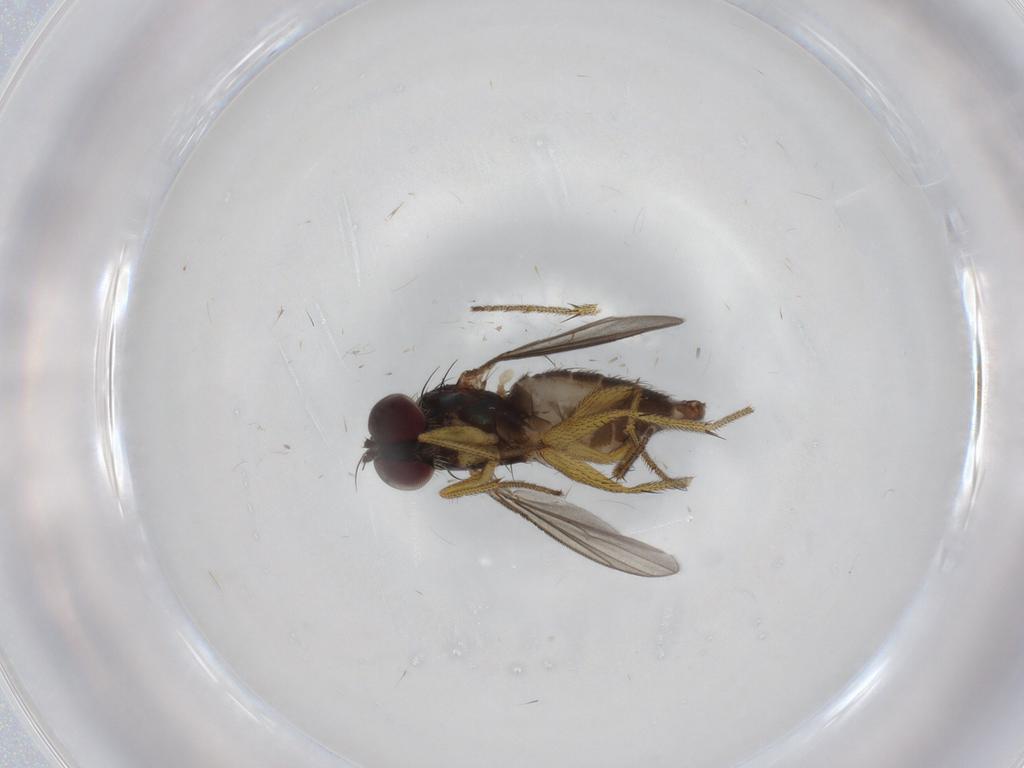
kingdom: Animalia
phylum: Arthropoda
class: Insecta
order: Diptera
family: Dolichopodidae
